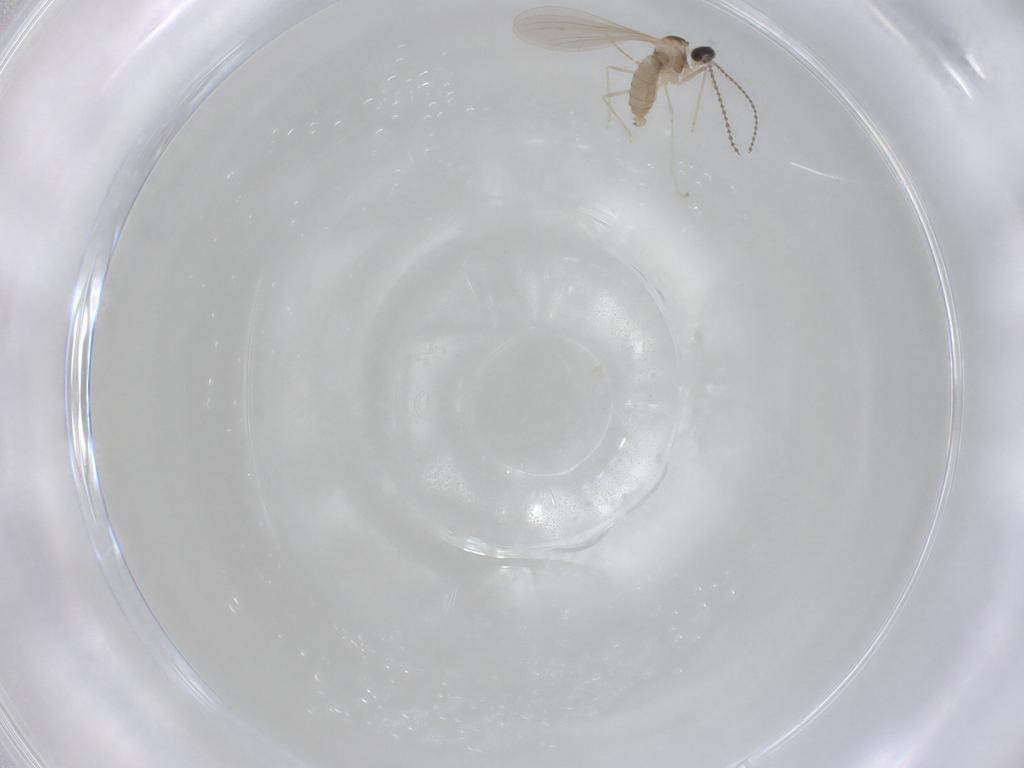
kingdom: Animalia
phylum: Arthropoda
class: Insecta
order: Diptera
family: Cecidomyiidae
